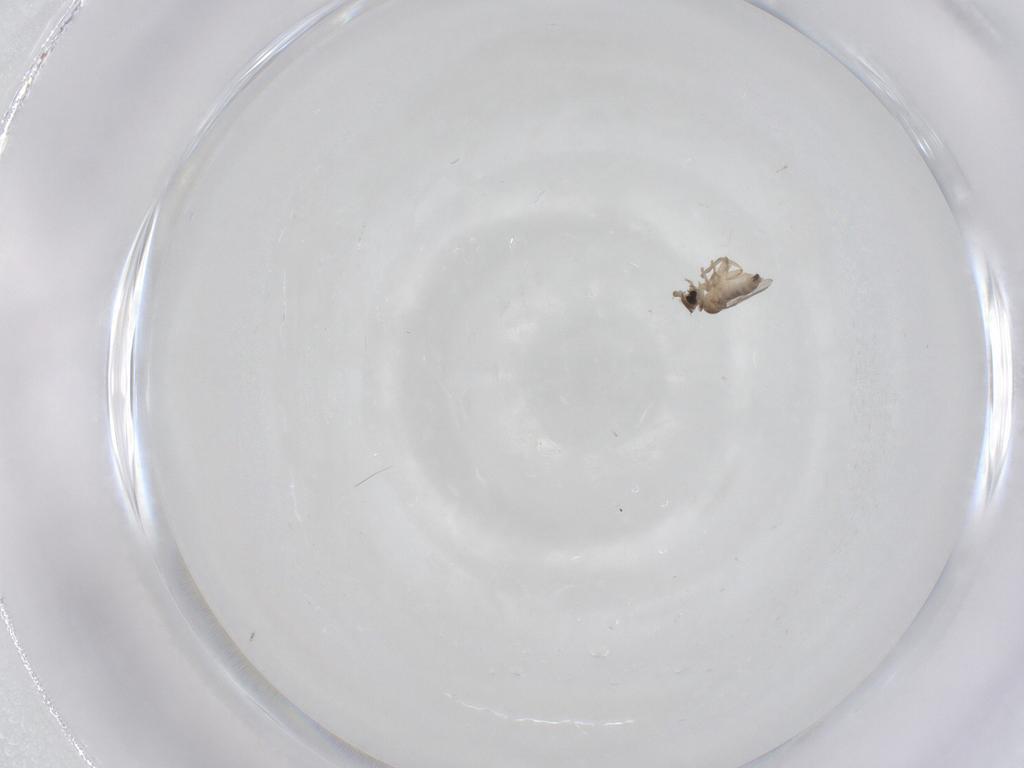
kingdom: Animalia
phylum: Arthropoda
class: Insecta
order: Diptera
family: Phoridae
